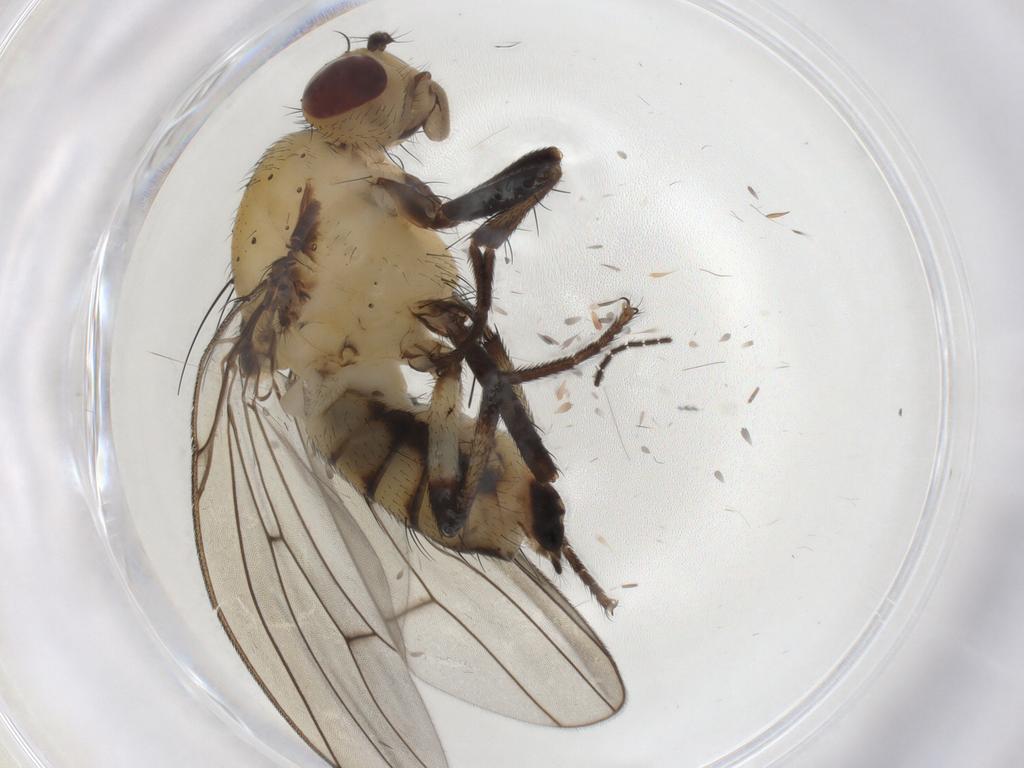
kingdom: Animalia
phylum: Arthropoda
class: Insecta
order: Diptera
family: Lauxaniidae
